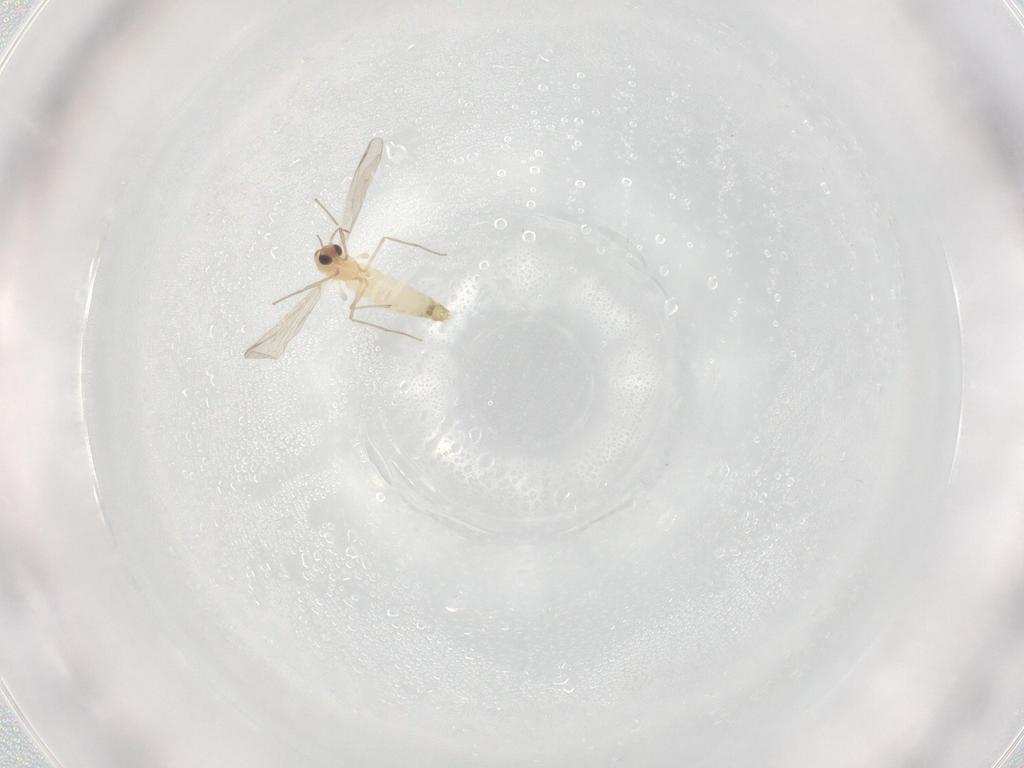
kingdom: Animalia
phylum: Arthropoda
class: Insecta
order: Diptera
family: Chironomidae
